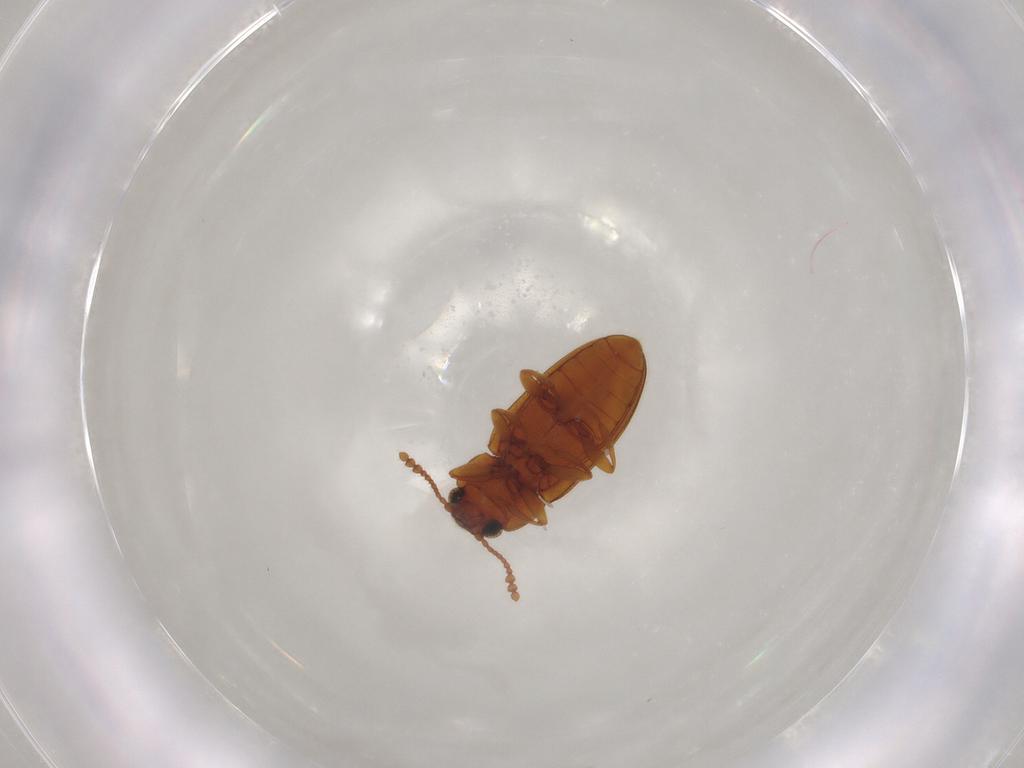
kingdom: Animalia
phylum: Arthropoda
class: Insecta
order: Coleoptera
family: Erotylidae
